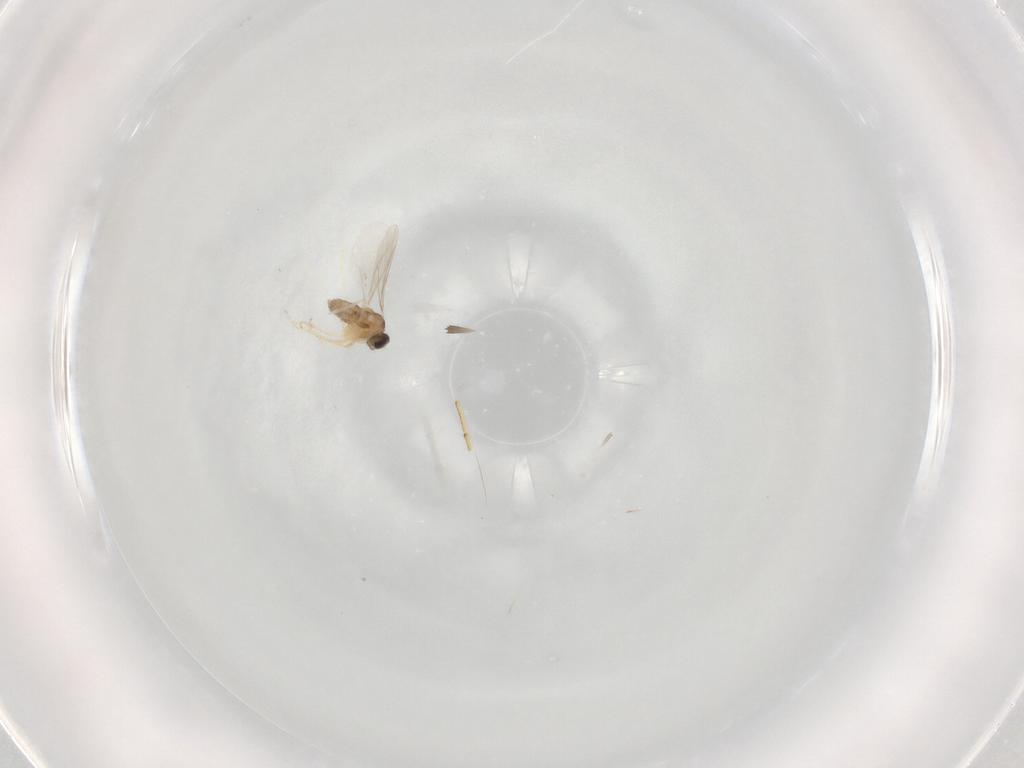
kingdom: Animalia
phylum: Arthropoda
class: Insecta
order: Diptera
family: Cecidomyiidae
